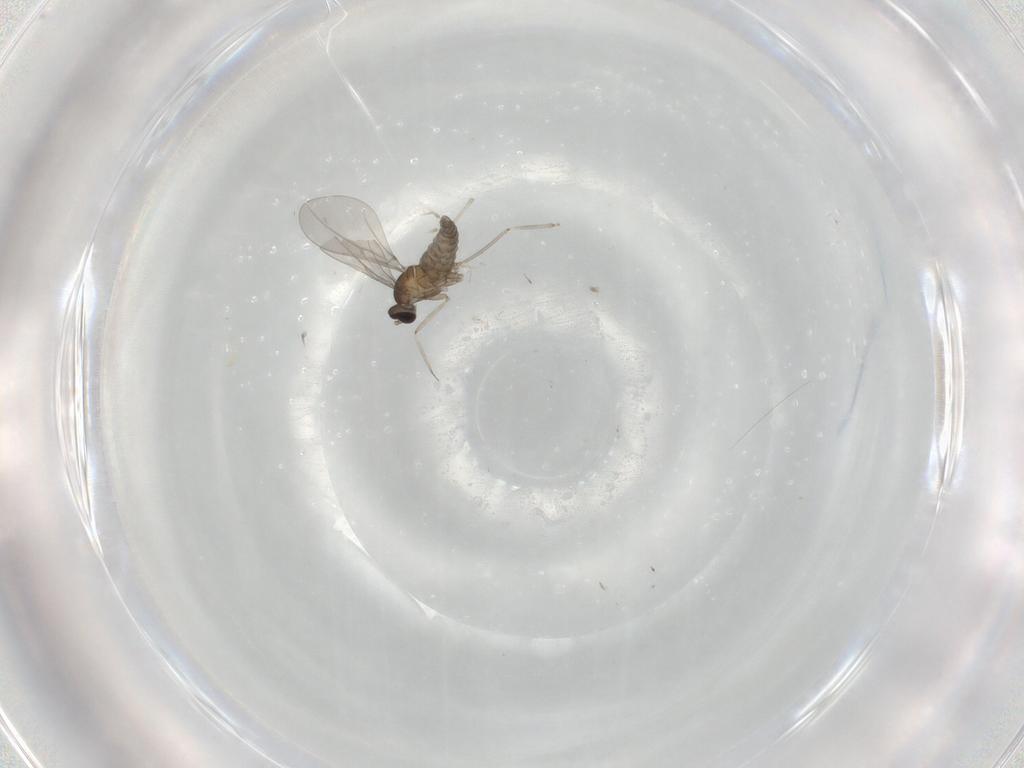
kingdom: Animalia
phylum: Arthropoda
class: Insecta
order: Diptera
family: Cecidomyiidae
